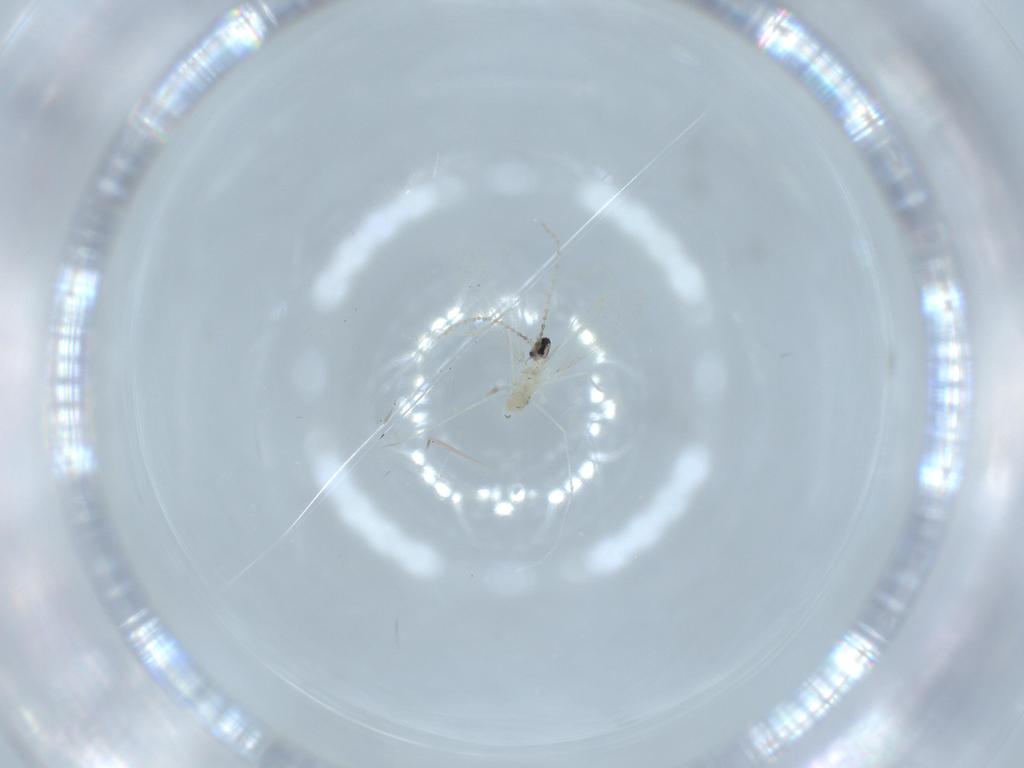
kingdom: Animalia
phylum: Arthropoda
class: Insecta
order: Diptera
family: Cecidomyiidae
